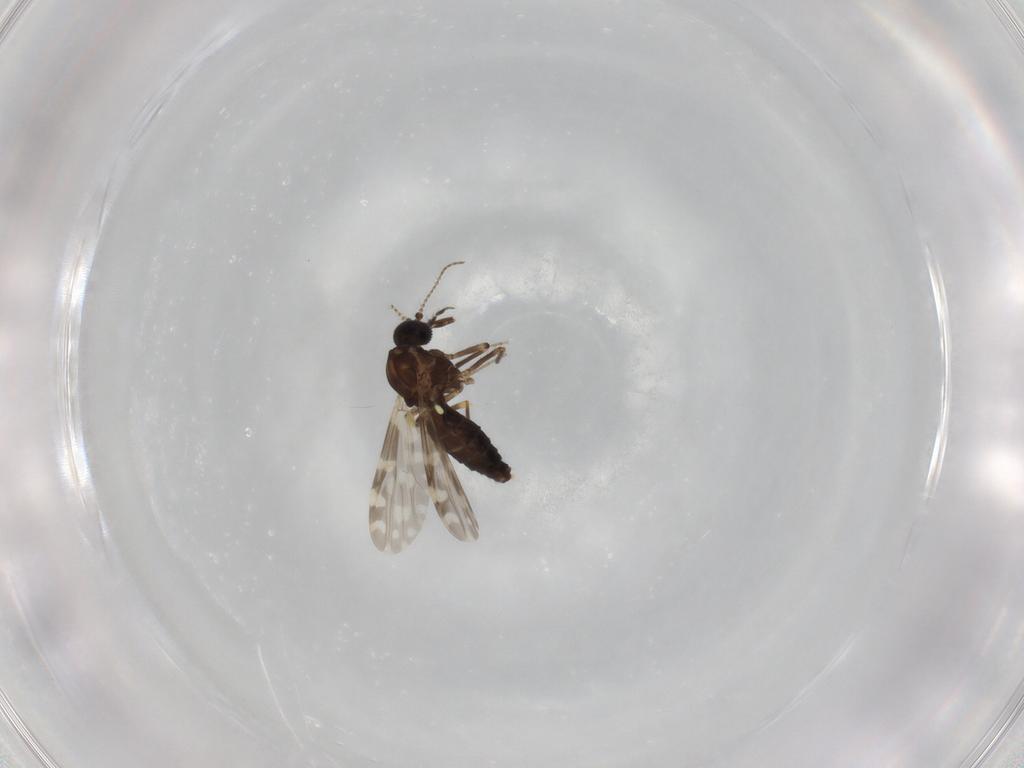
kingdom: Animalia
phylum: Arthropoda
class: Insecta
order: Diptera
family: Ceratopogonidae
